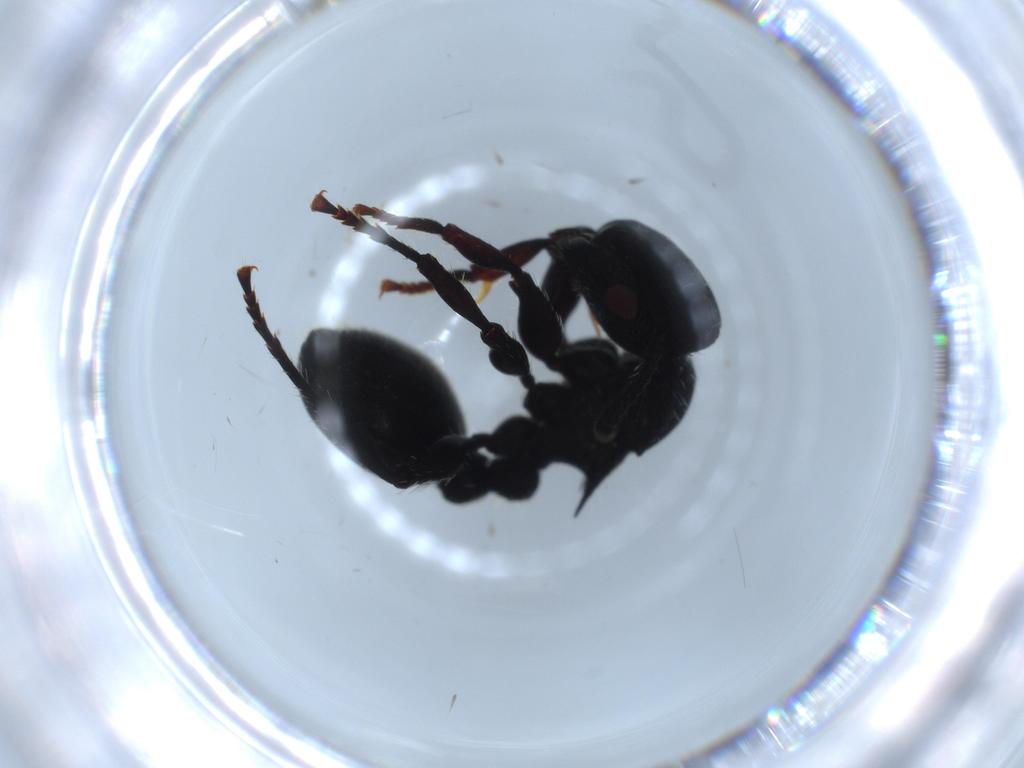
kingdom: Animalia
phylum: Arthropoda
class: Insecta
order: Hymenoptera
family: Formicidae
